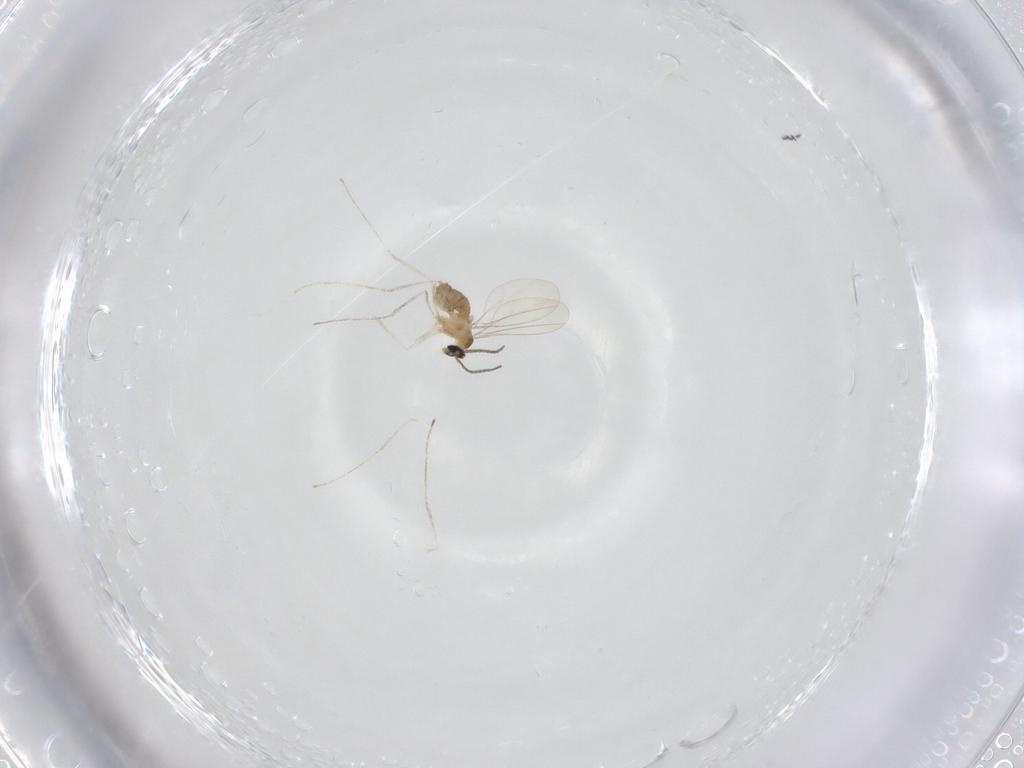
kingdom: Animalia
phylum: Arthropoda
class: Insecta
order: Diptera
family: Cecidomyiidae
